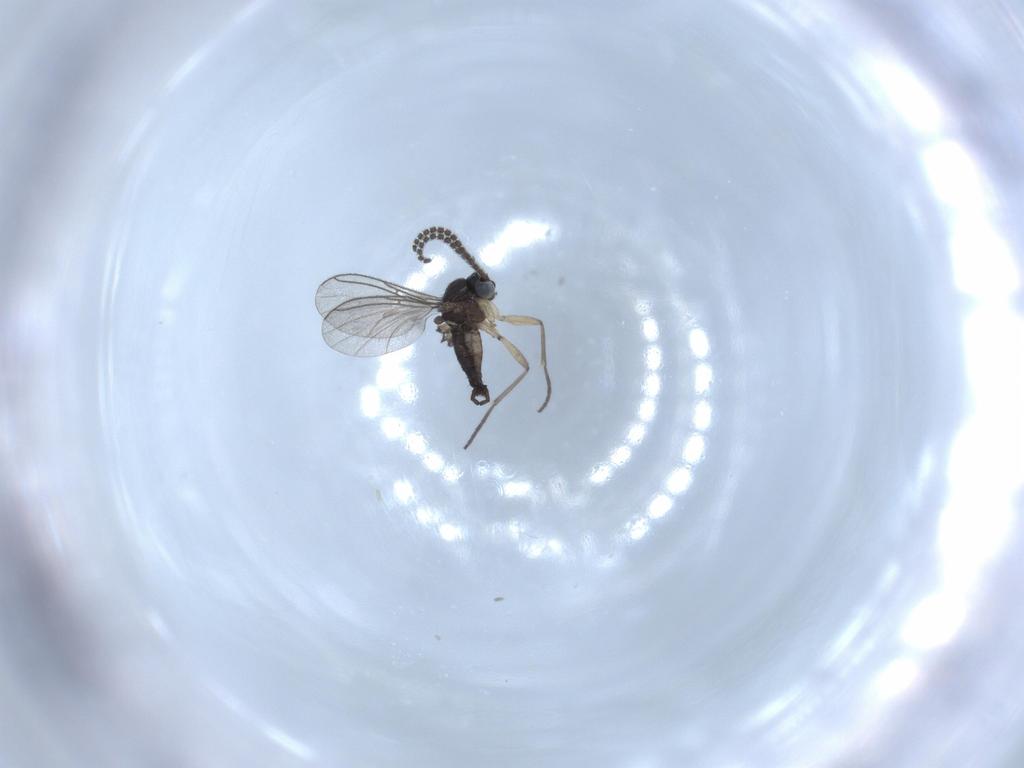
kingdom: Animalia
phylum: Arthropoda
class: Insecta
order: Diptera
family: Sciaridae
